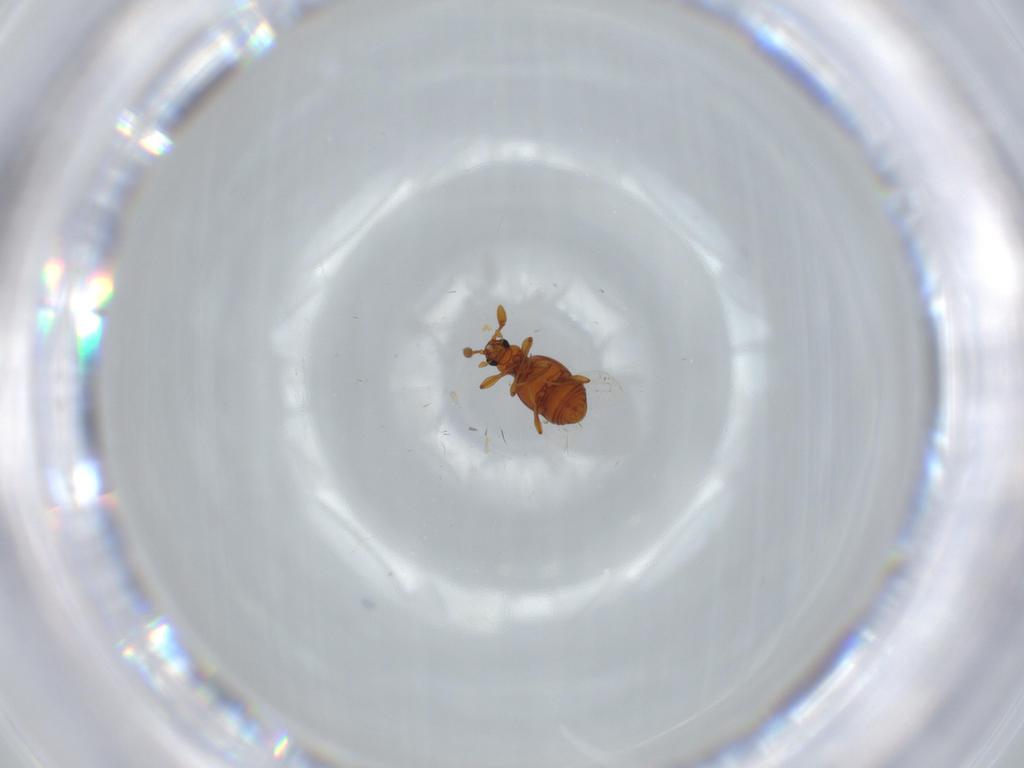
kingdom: Animalia
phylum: Arthropoda
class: Insecta
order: Coleoptera
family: Staphylinidae
